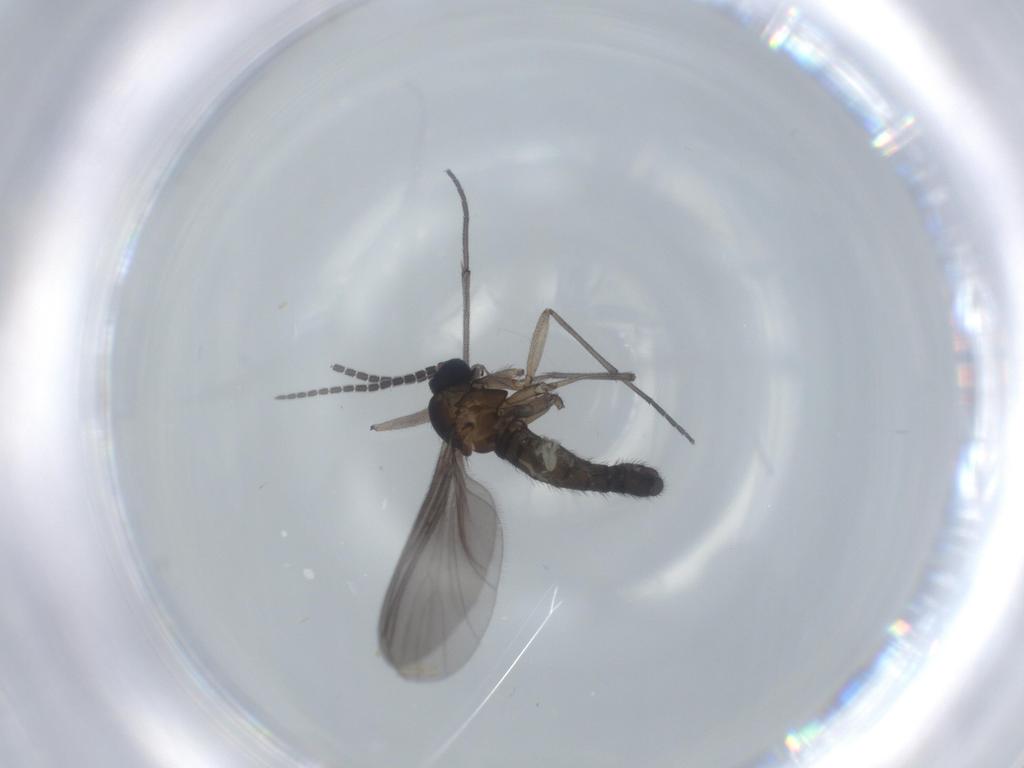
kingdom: Animalia
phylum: Arthropoda
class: Insecta
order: Diptera
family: Sciaridae
